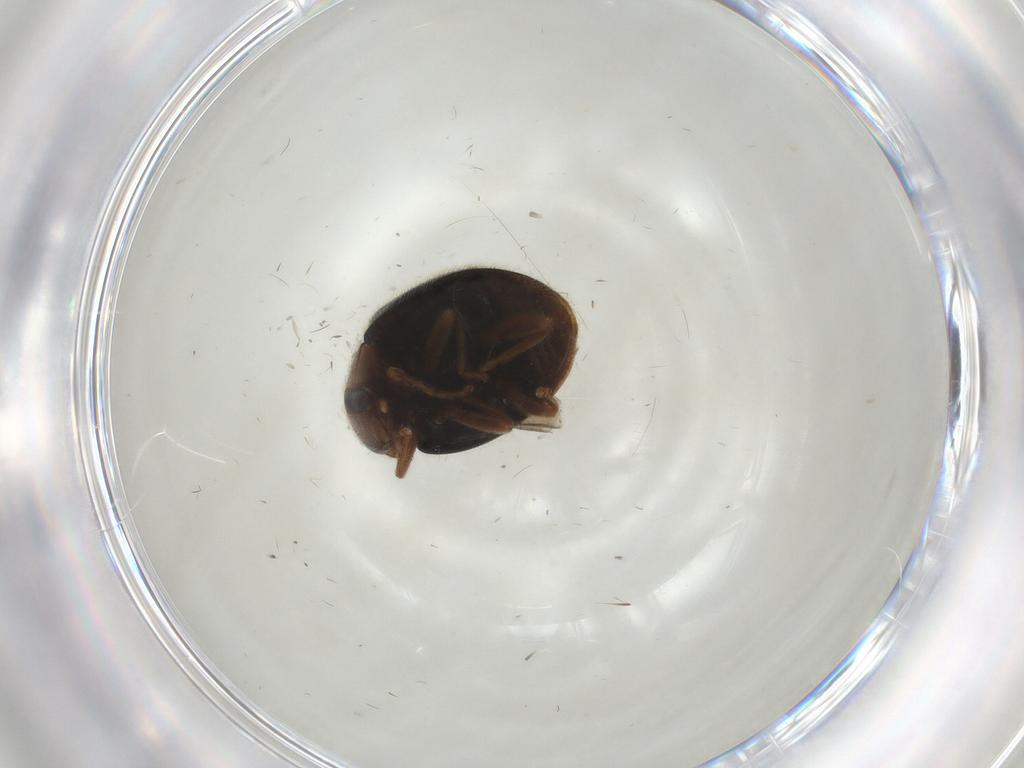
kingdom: Animalia
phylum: Arthropoda
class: Insecta
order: Coleoptera
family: Coccinellidae
